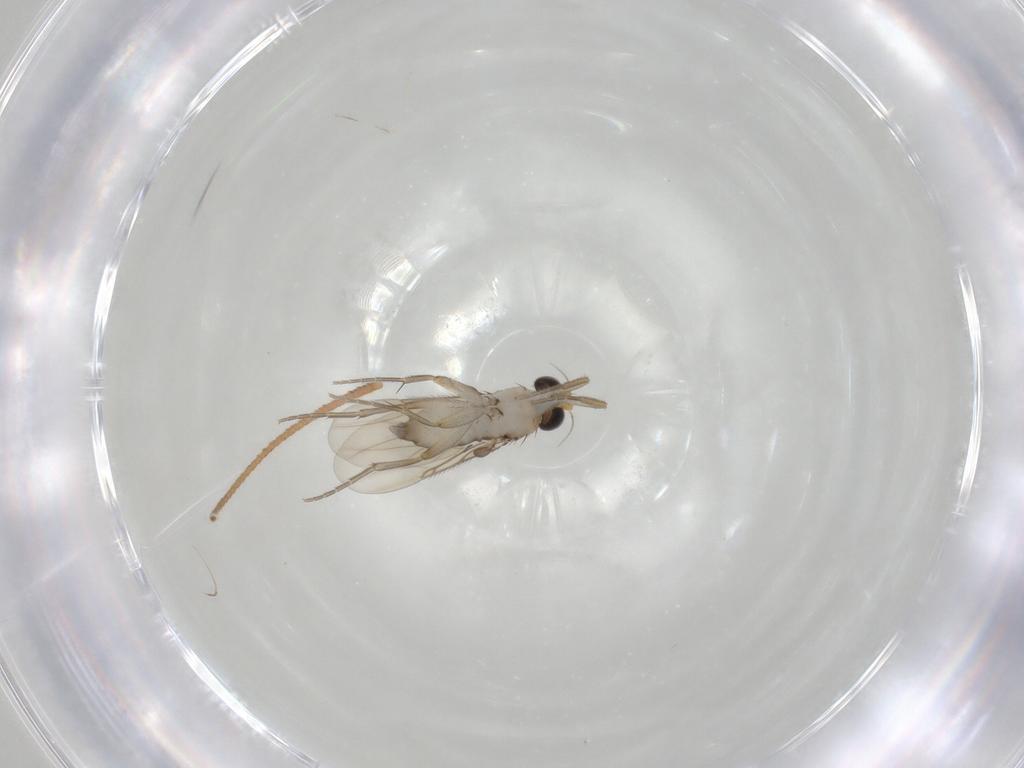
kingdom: Animalia
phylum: Arthropoda
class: Insecta
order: Diptera
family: Phoridae
